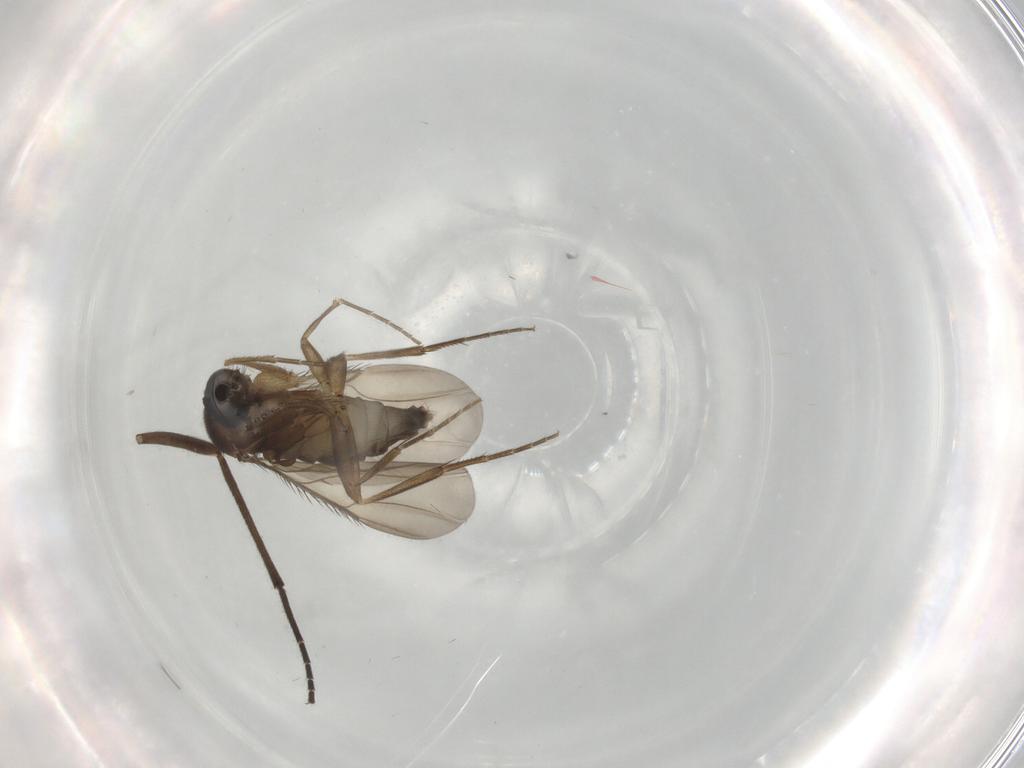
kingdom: Animalia
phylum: Arthropoda
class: Insecta
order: Diptera
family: Phoridae
